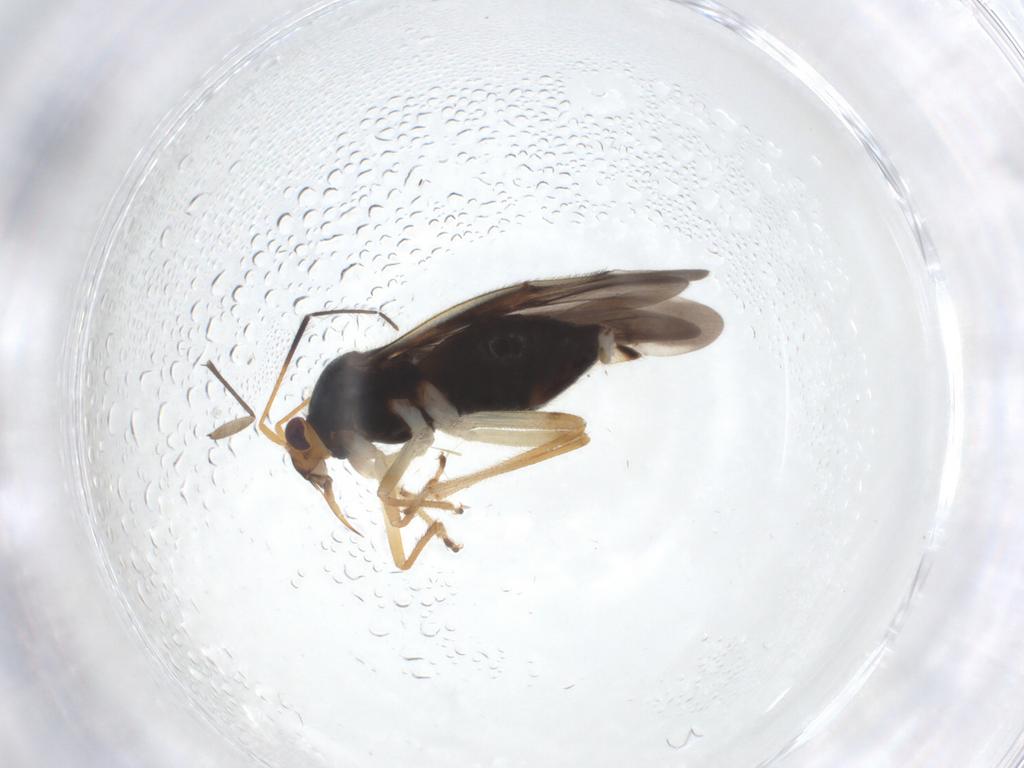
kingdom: Animalia
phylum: Arthropoda
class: Insecta
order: Hemiptera
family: Miridae
